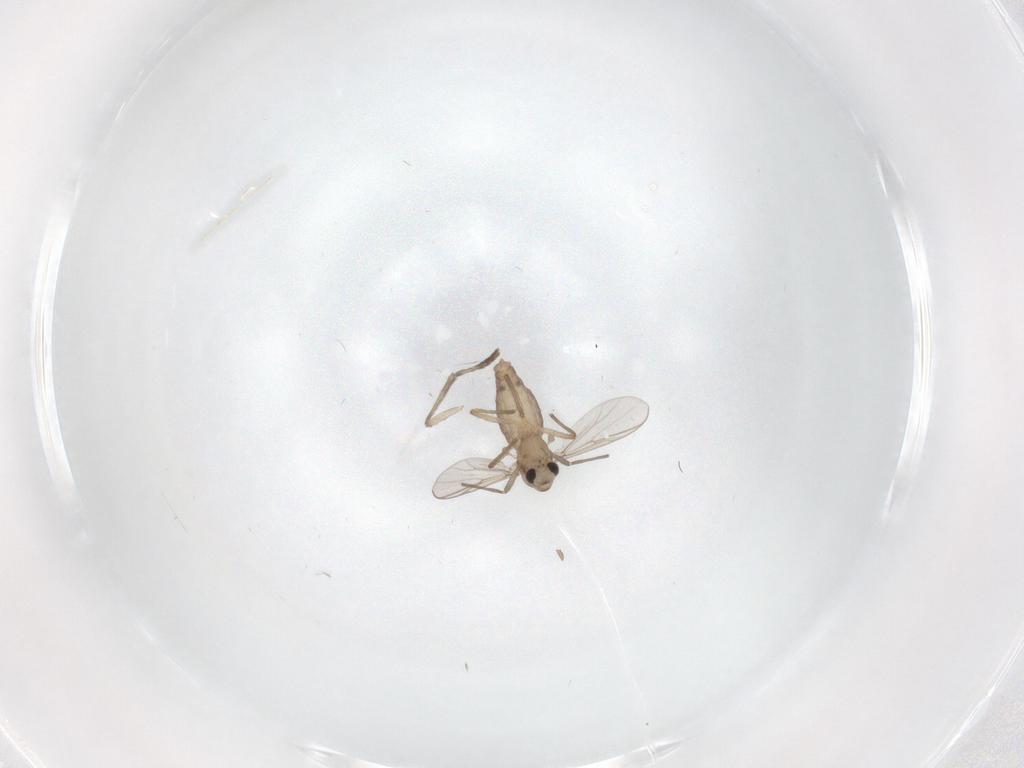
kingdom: Animalia
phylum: Arthropoda
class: Insecta
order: Diptera
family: Chironomidae
